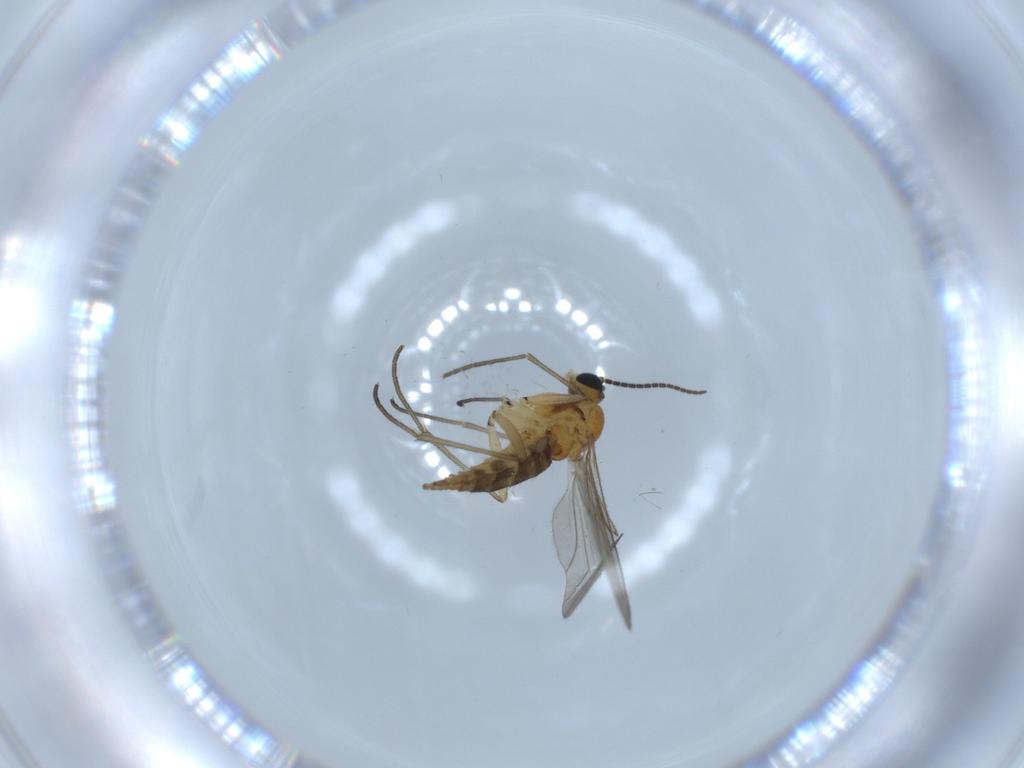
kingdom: Animalia
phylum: Arthropoda
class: Insecta
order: Diptera
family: Sciaridae
